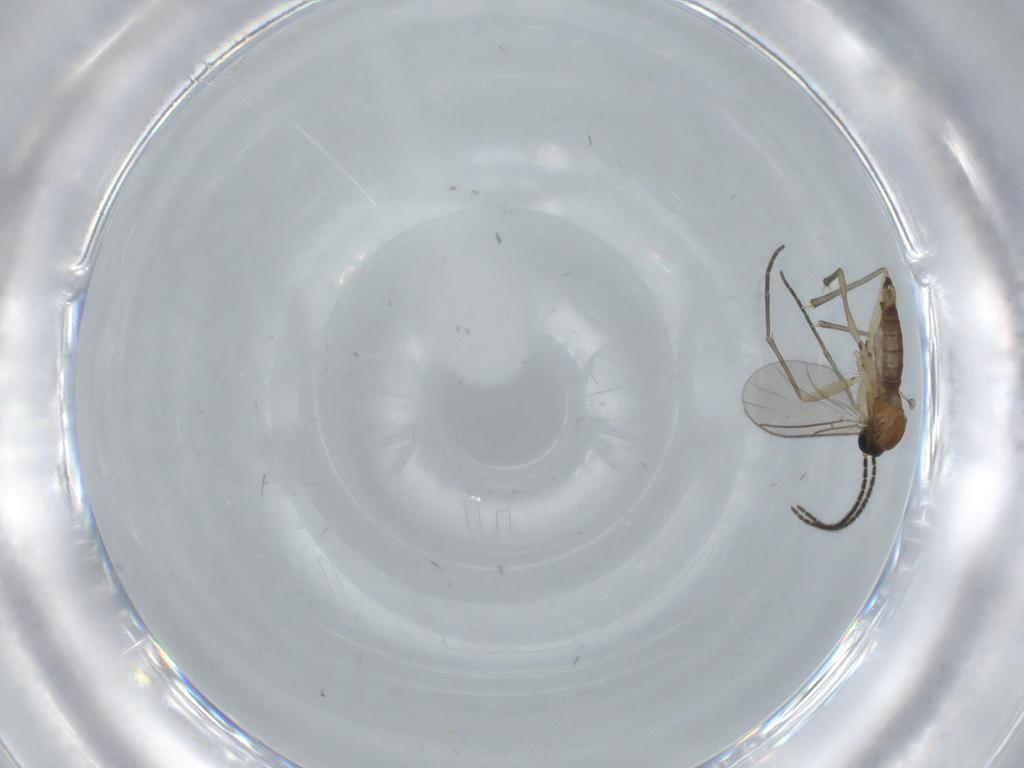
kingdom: Animalia
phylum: Arthropoda
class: Insecta
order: Diptera
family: Sciaridae
